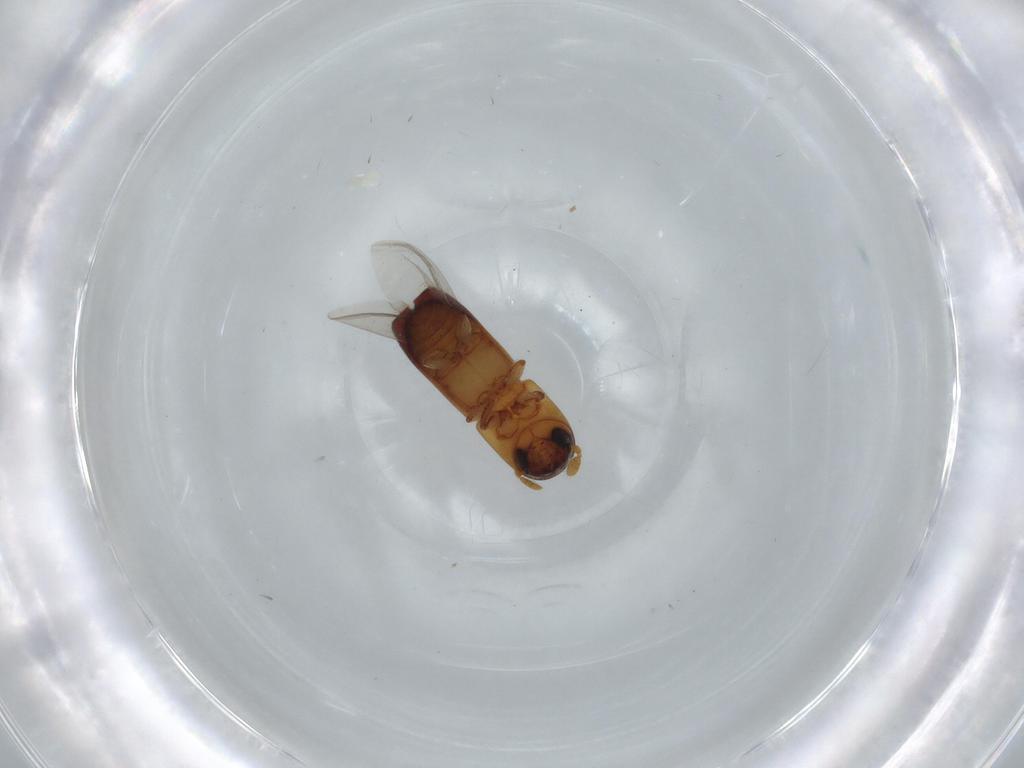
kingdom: Animalia
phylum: Arthropoda
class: Insecta
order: Coleoptera
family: Curculionidae
